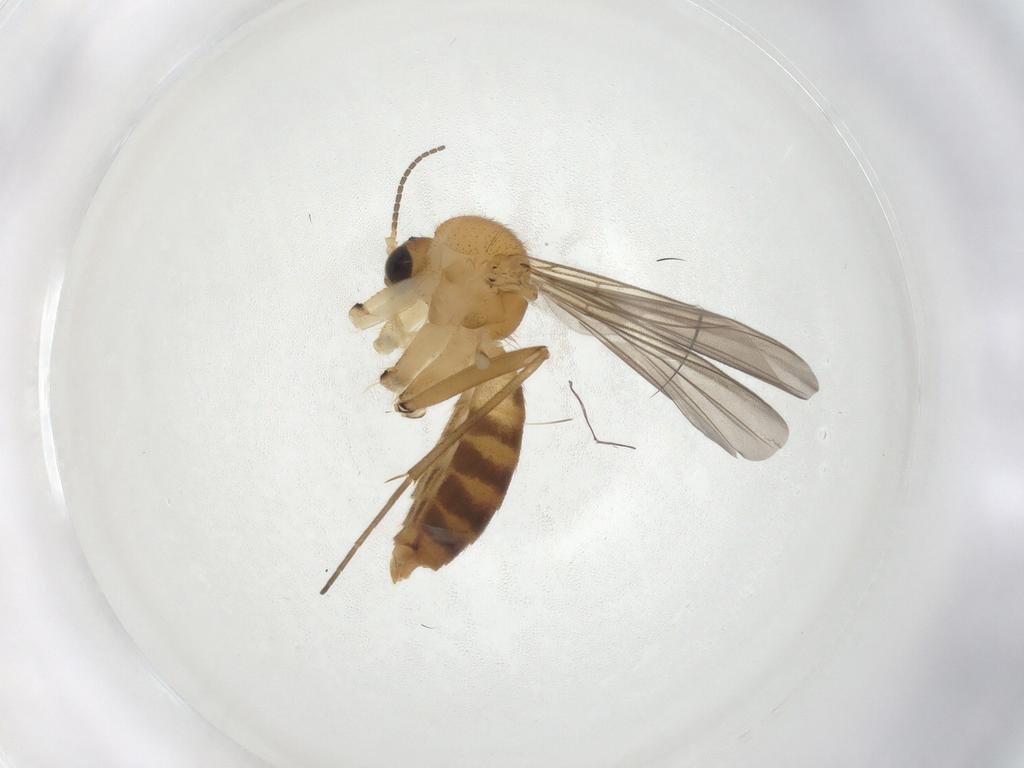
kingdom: Animalia
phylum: Arthropoda
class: Insecta
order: Diptera
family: Mycetophilidae
